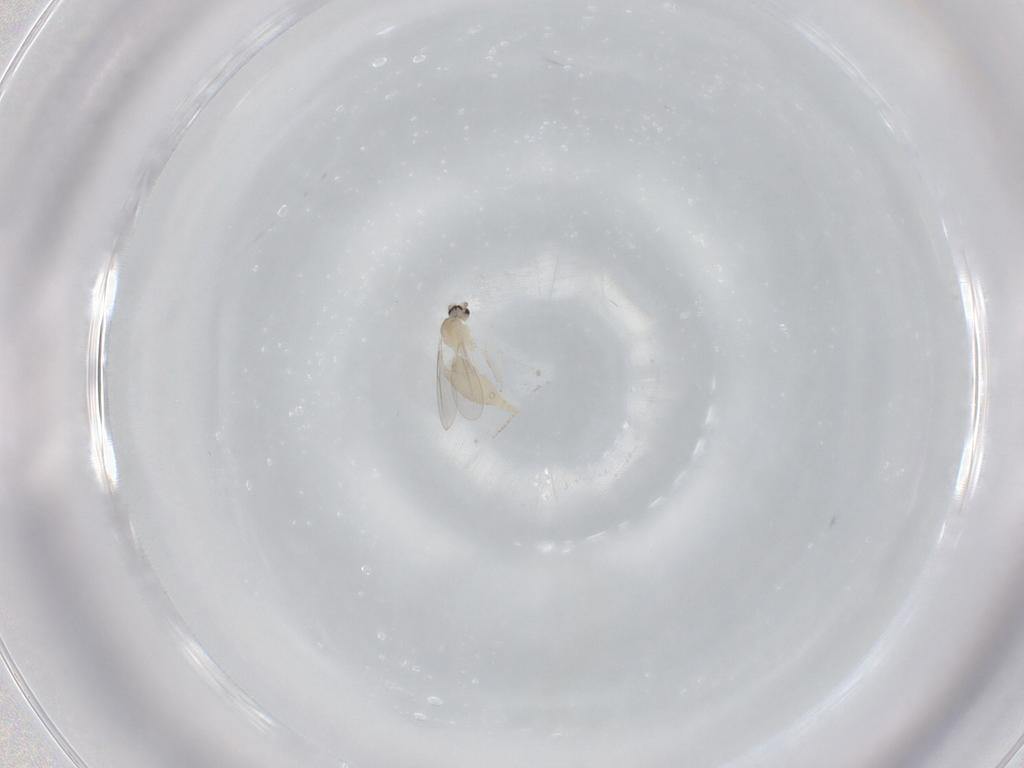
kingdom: Animalia
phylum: Arthropoda
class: Insecta
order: Diptera
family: Cecidomyiidae
